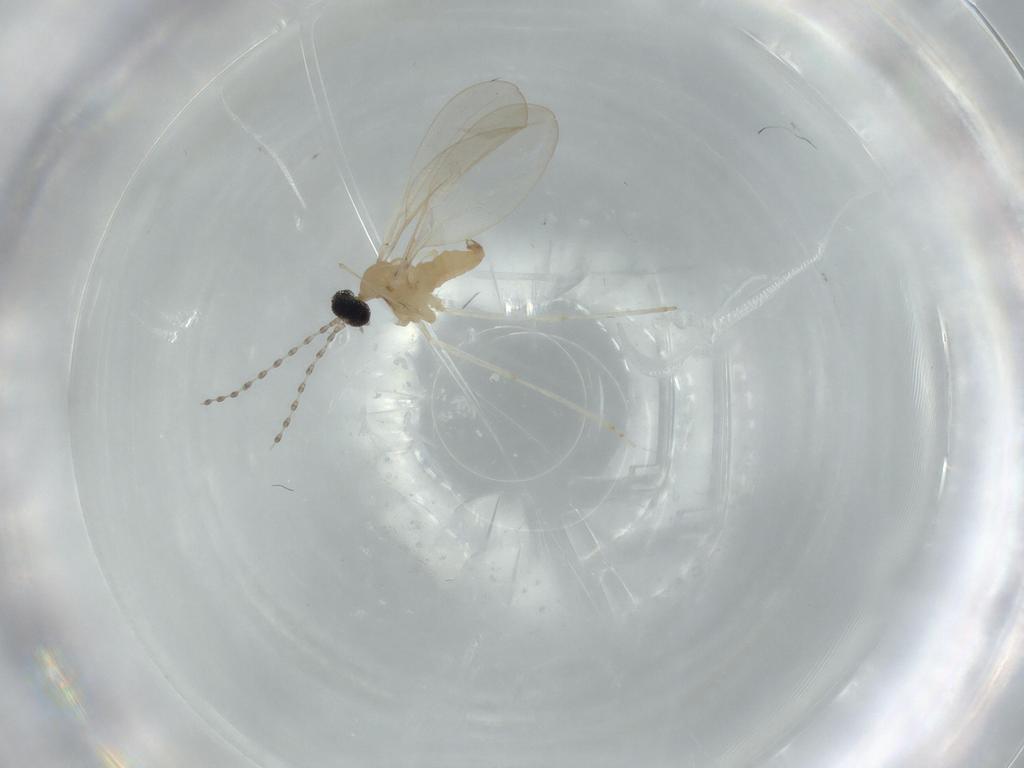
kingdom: Animalia
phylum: Arthropoda
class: Insecta
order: Diptera
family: Cecidomyiidae
